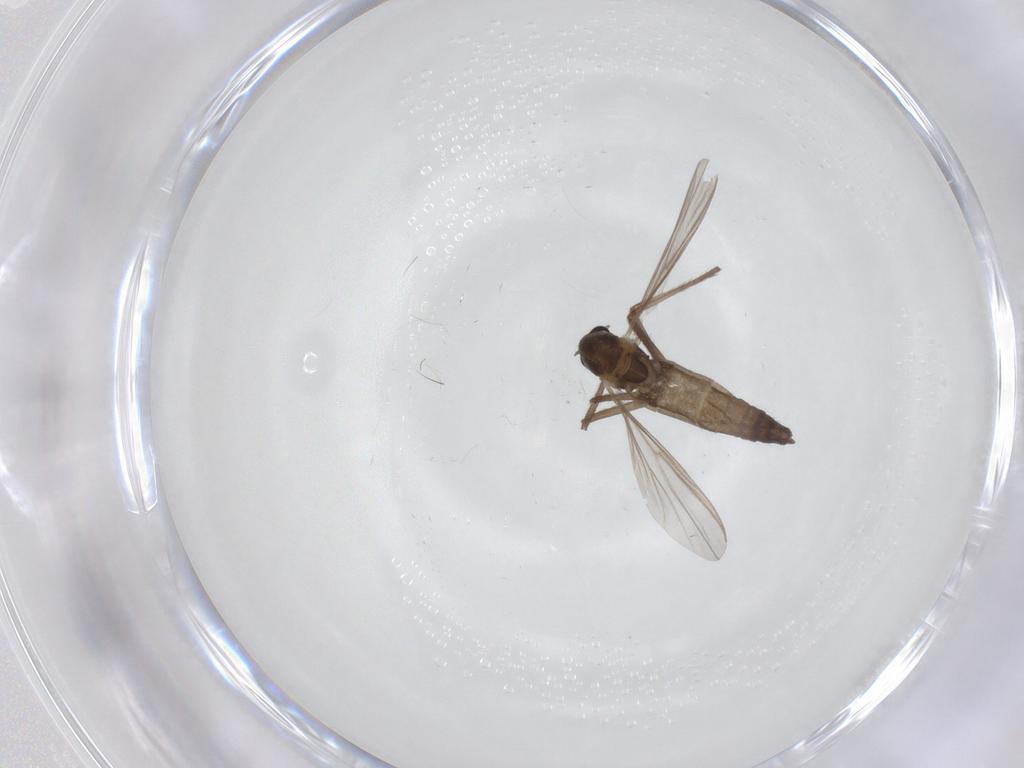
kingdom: Animalia
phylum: Arthropoda
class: Insecta
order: Diptera
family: Chironomidae
